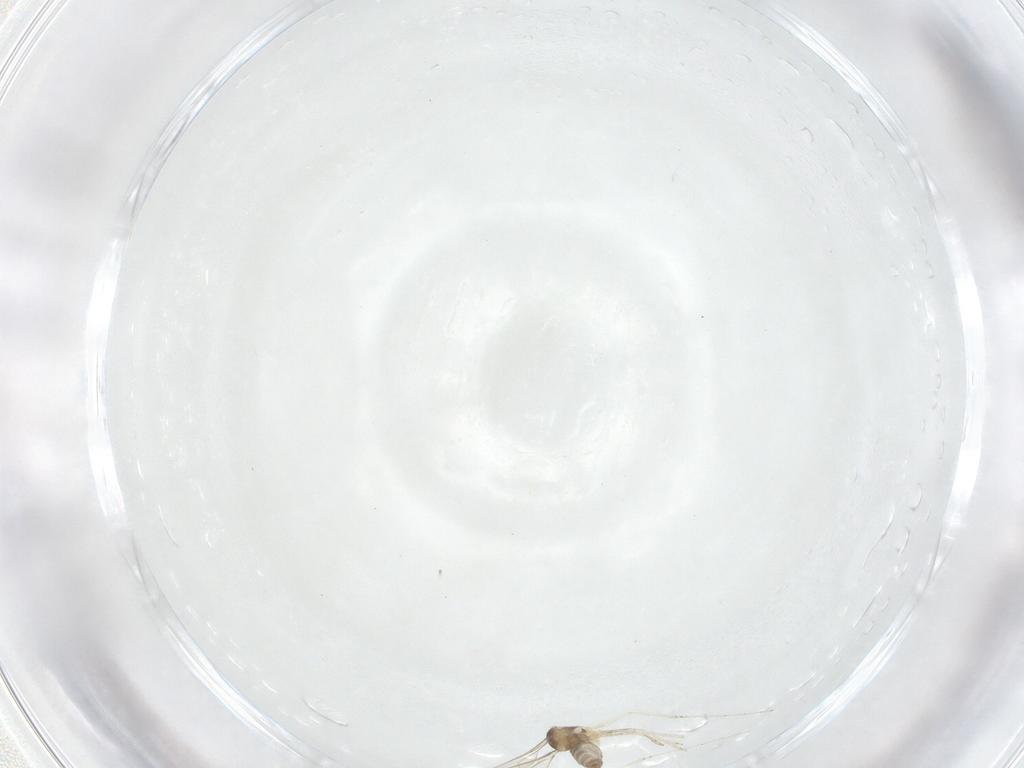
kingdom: Animalia
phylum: Arthropoda
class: Insecta
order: Diptera
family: Cecidomyiidae
